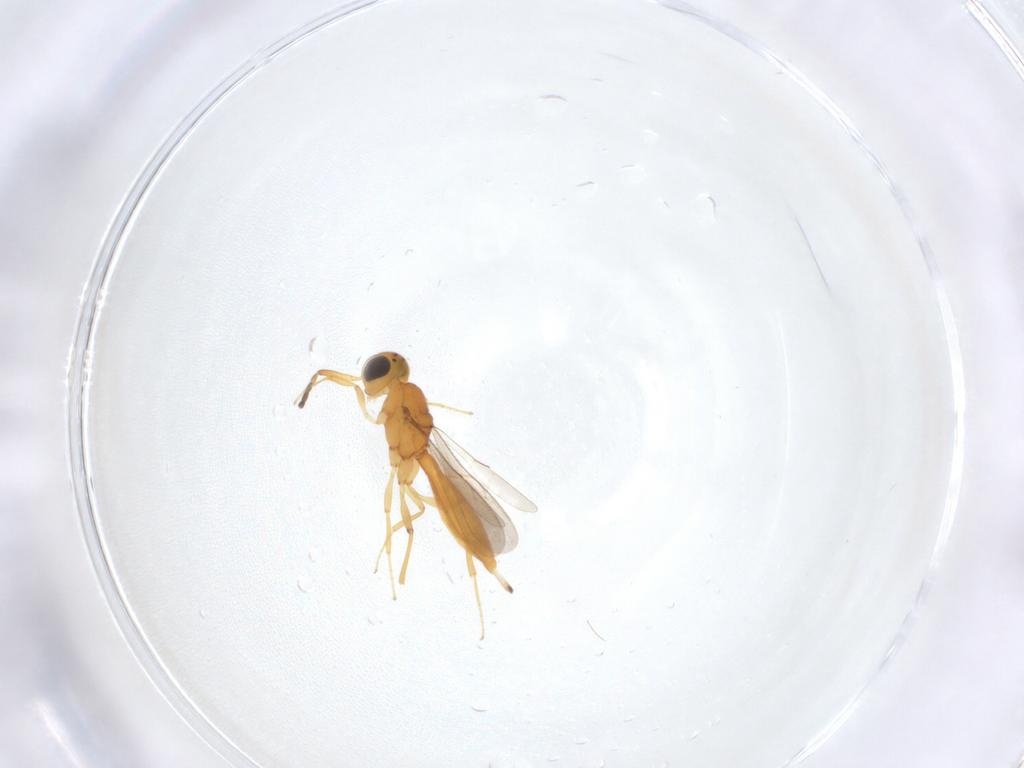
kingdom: Animalia
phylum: Arthropoda
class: Insecta
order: Hymenoptera
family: Scelionidae
